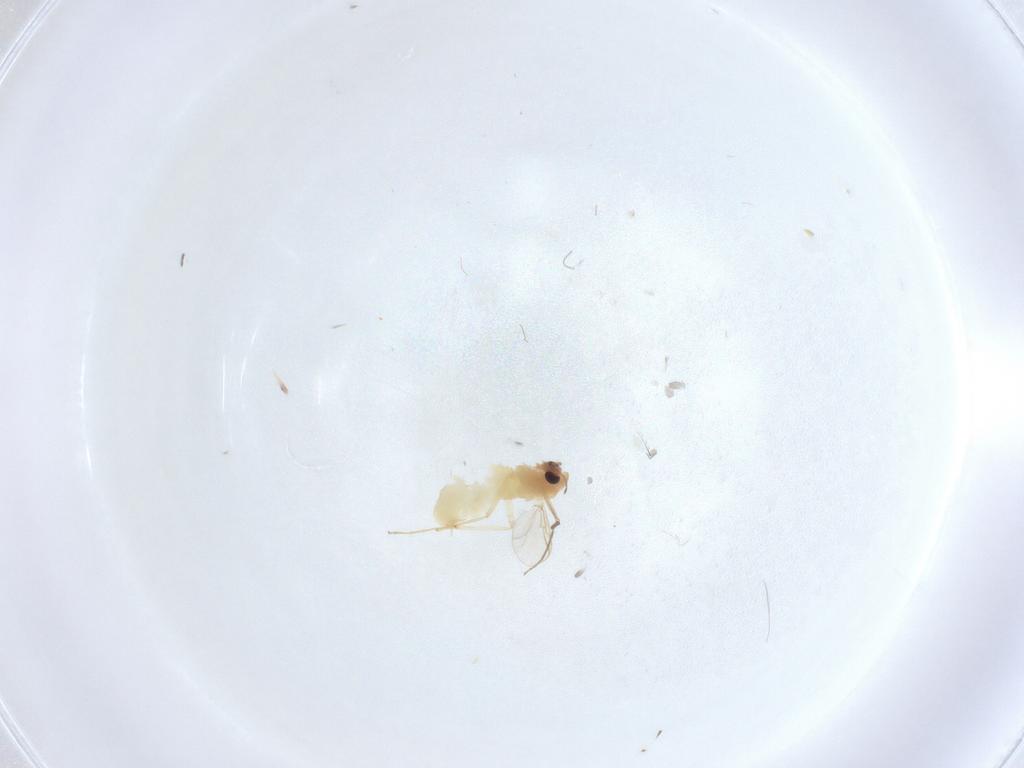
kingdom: Animalia
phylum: Arthropoda
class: Insecta
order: Diptera
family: Chironomidae
